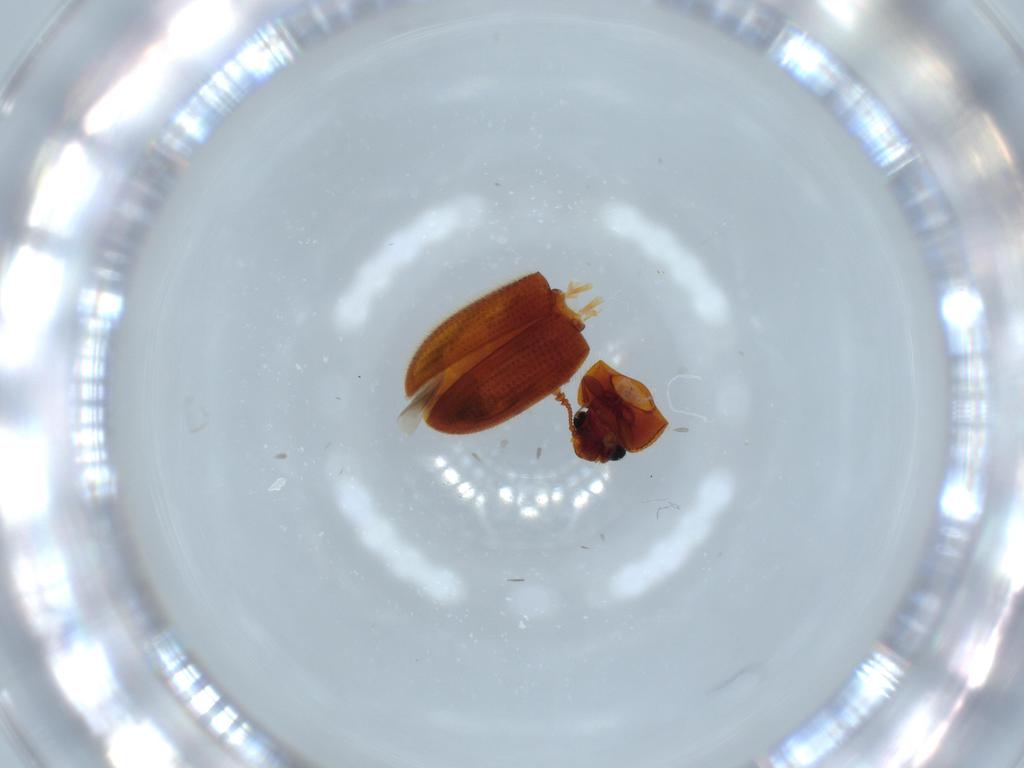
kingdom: Animalia
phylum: Arthropoda
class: Insecta
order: Coleoptera
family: Biphyllidae
